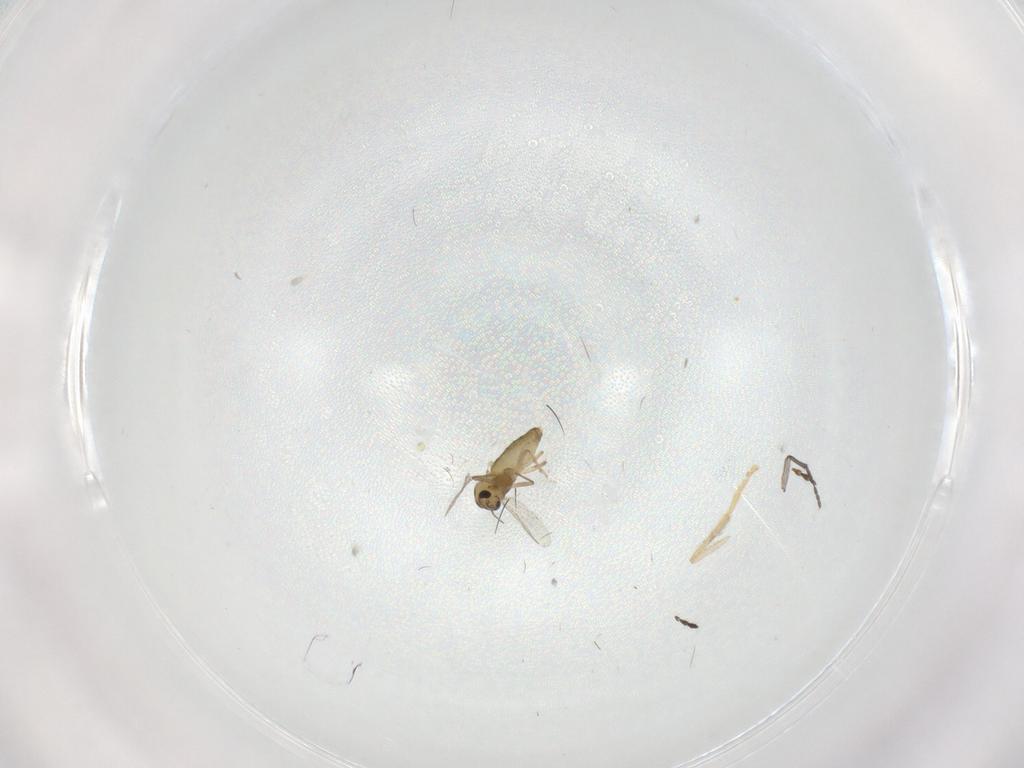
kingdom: Animalia
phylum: Arthropoda
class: Insecta
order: Diptera
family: Chironomidae
